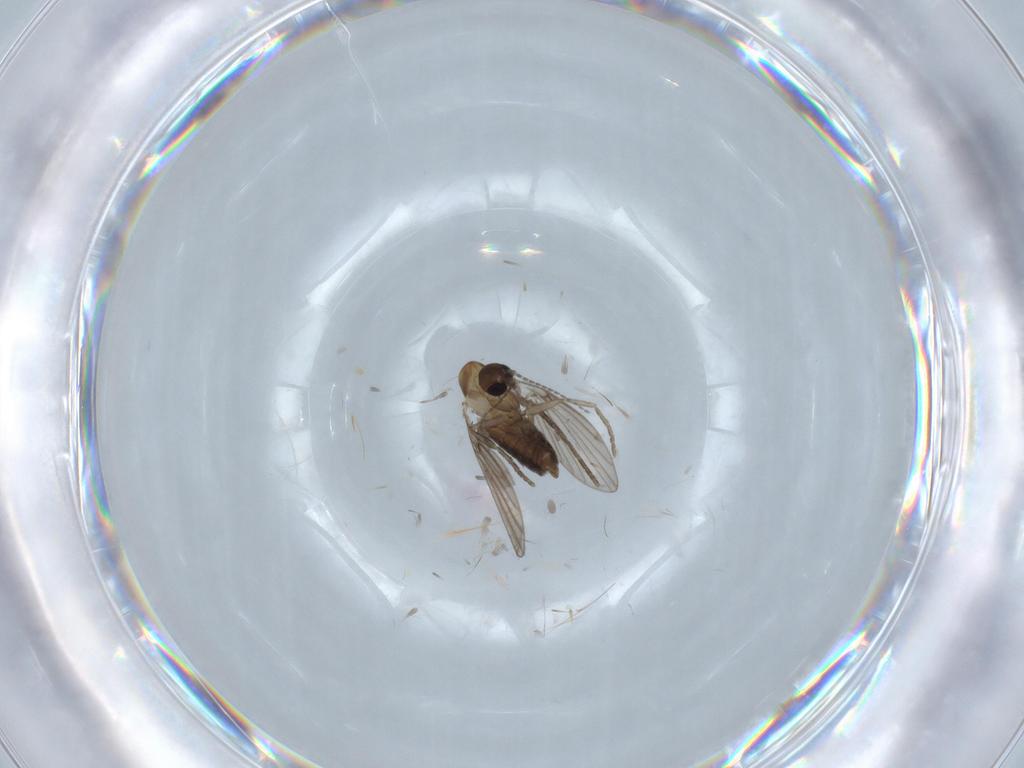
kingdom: Animalia
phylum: Arthropoda
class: Insecta
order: Diptera
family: Psychodidae
